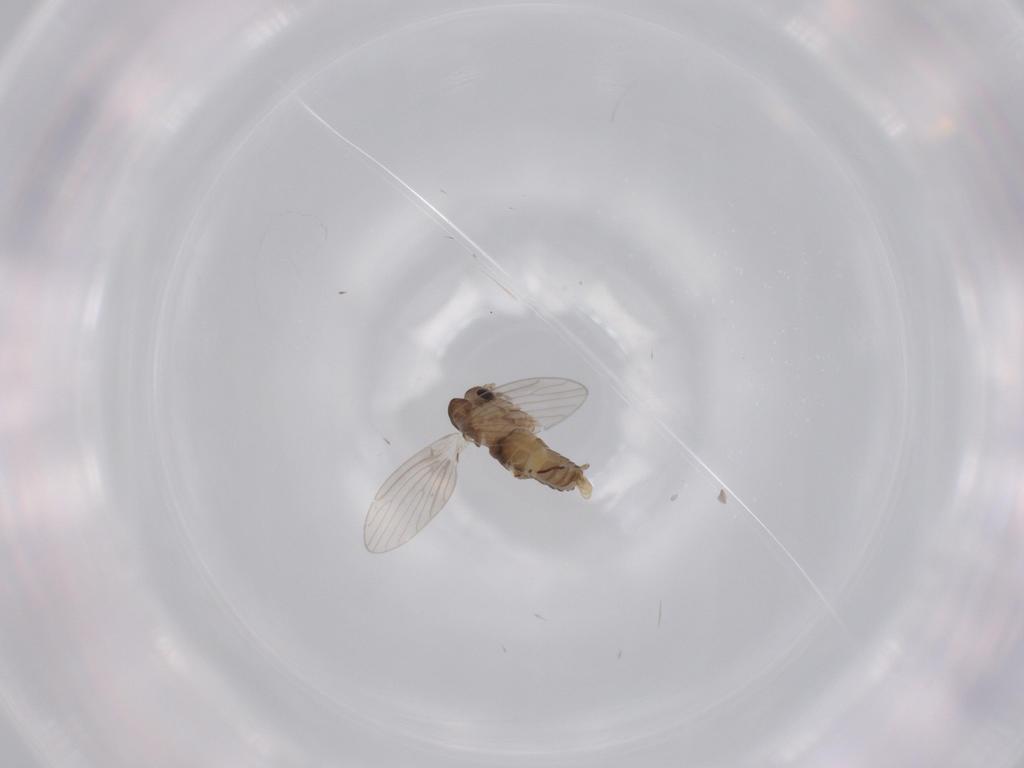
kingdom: Animalia
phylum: Arthropoda
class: Insecta
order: Diptera
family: Psychodidae
